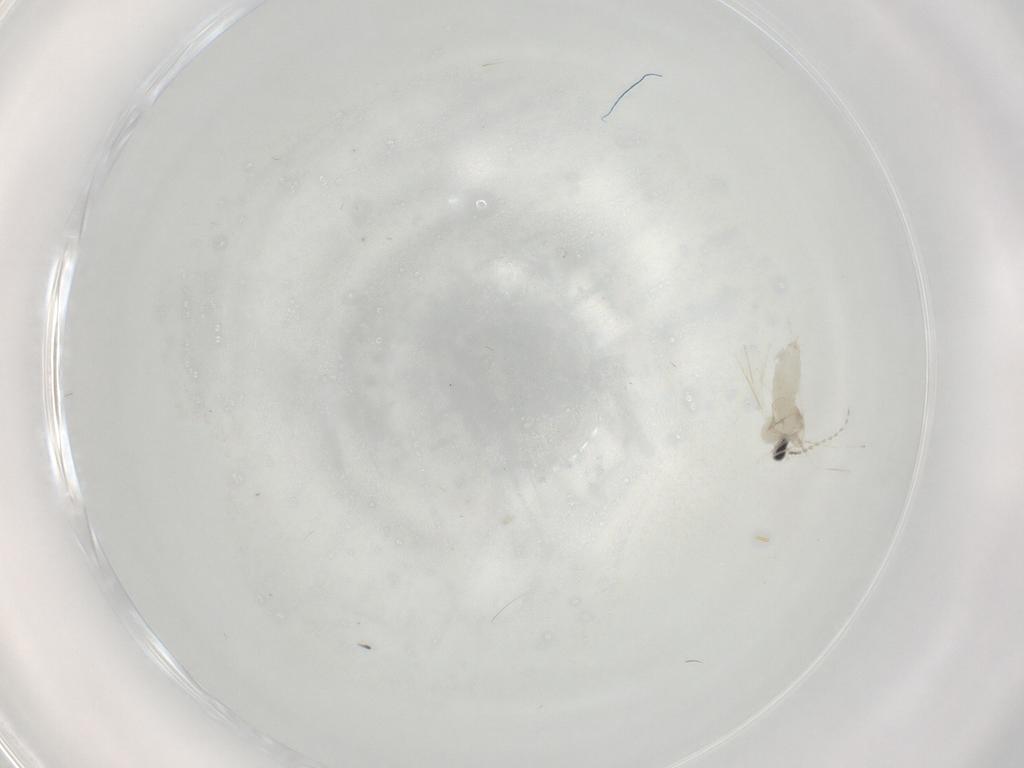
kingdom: Animalia
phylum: Arthropoda
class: Insecta
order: Diptera
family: Cecidomyiidae
